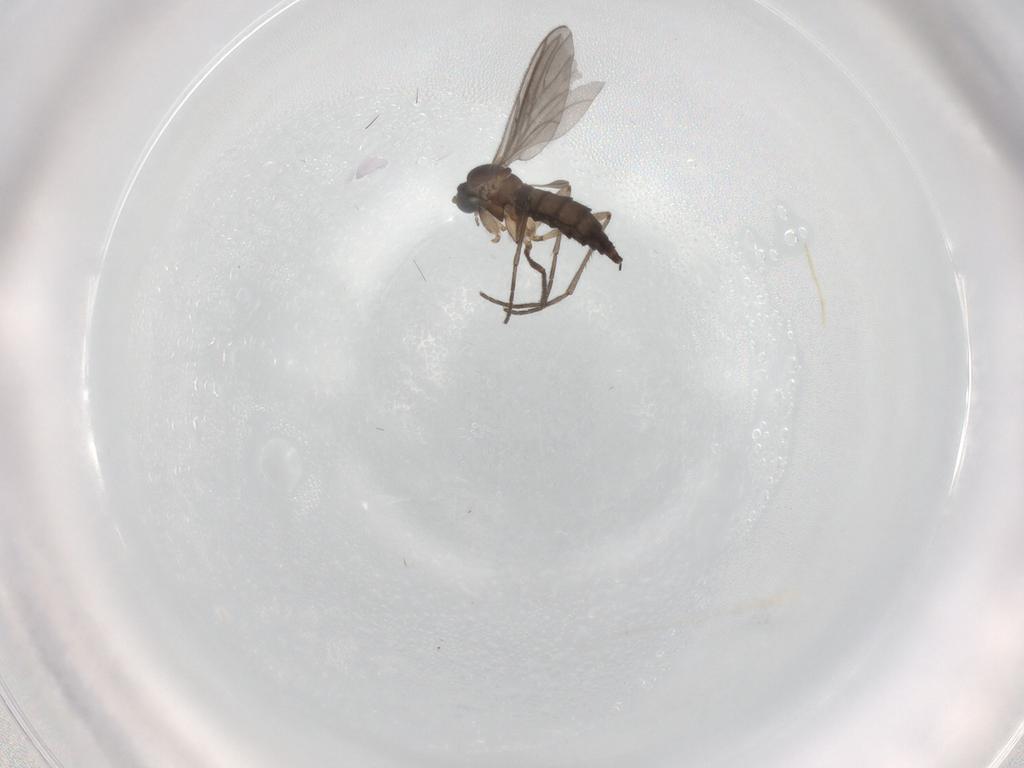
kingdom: Animalia
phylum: Arthropoda
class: Insecta
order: Diptera
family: Cecidomyiidae
